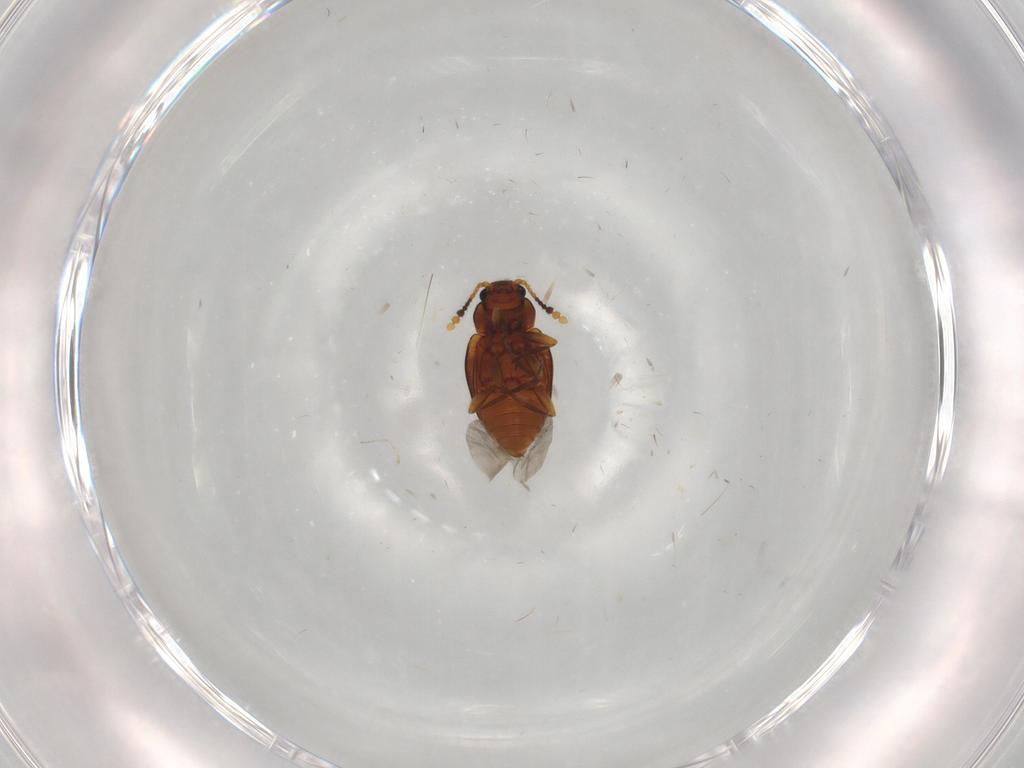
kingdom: Animalia
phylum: Arthropoda
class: Insecta
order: Coleoptera
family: Erotylidae
